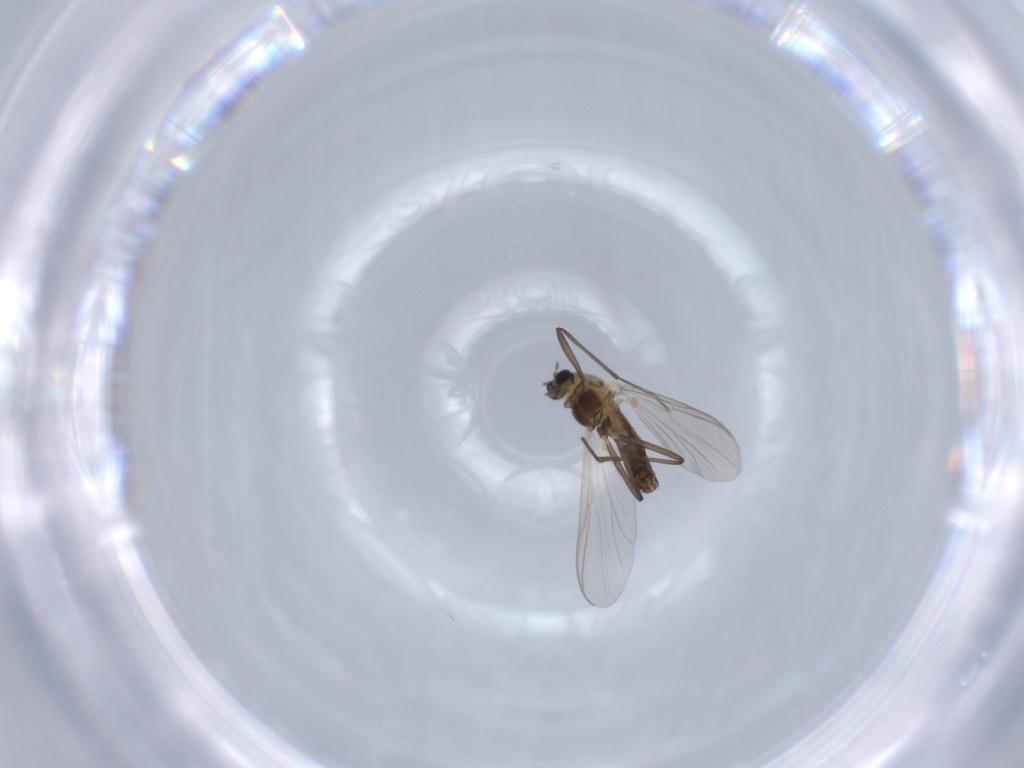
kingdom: Animalia
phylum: Arthropoda
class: Insecta
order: Diptera
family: Chironomidae
